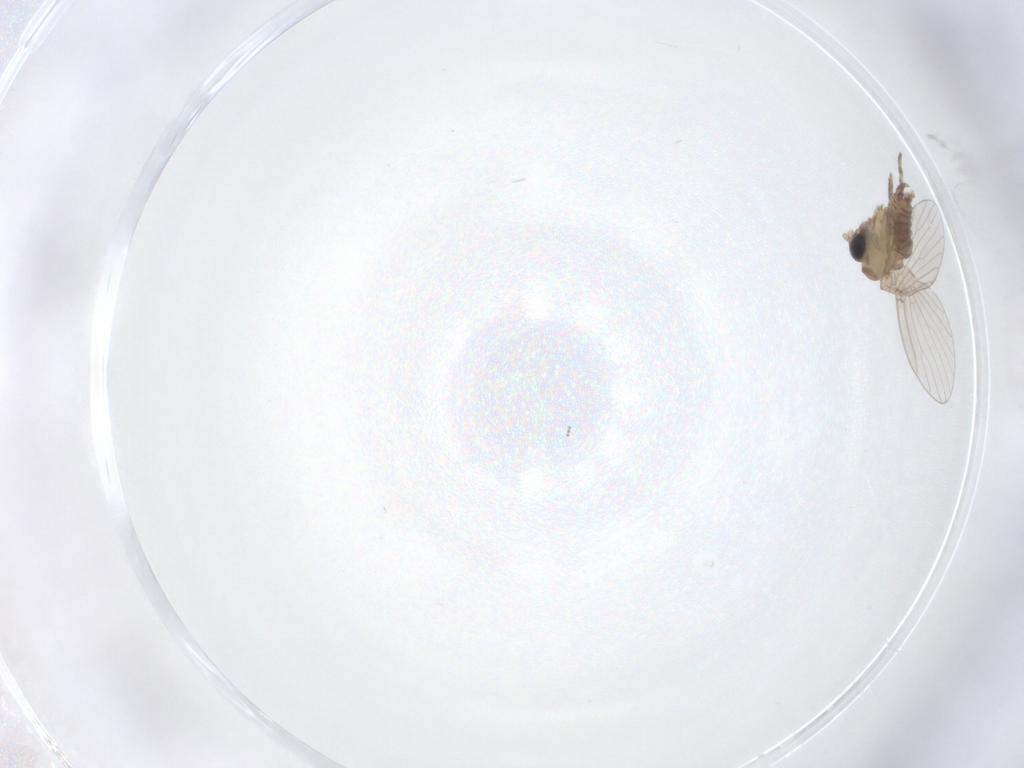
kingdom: Animalia
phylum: Arthropoda
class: Insecta
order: Diptera
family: Psychodidae
